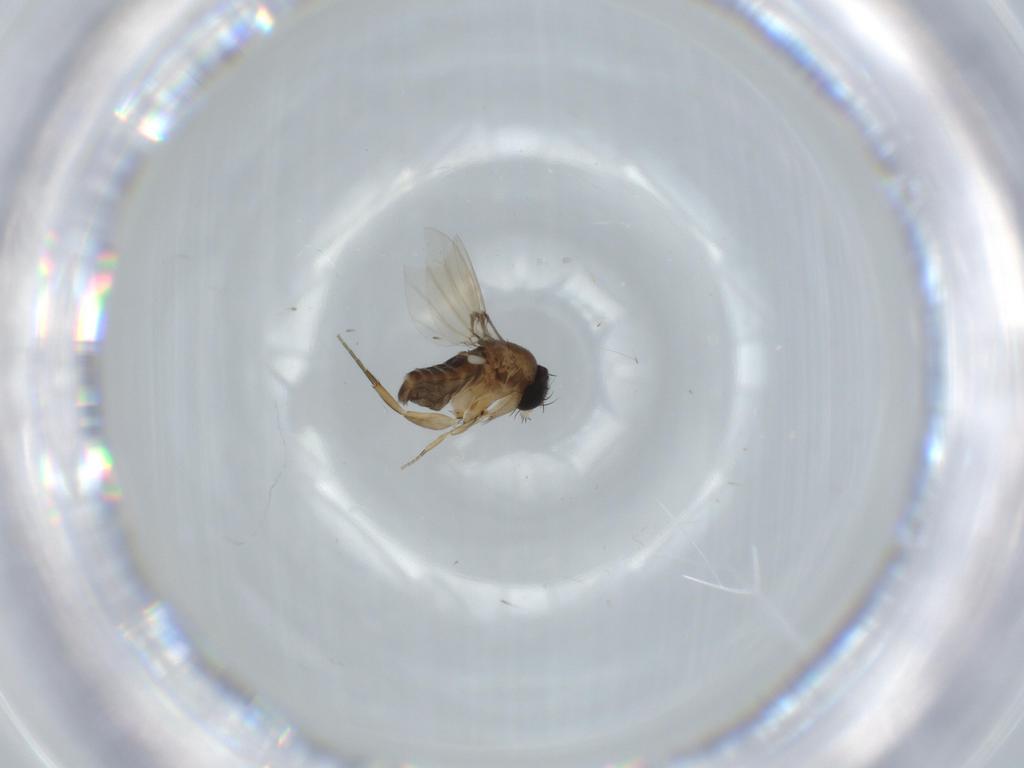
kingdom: Animalia
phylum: Arthropoda
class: Insecta
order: Diptera
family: Phoridae
